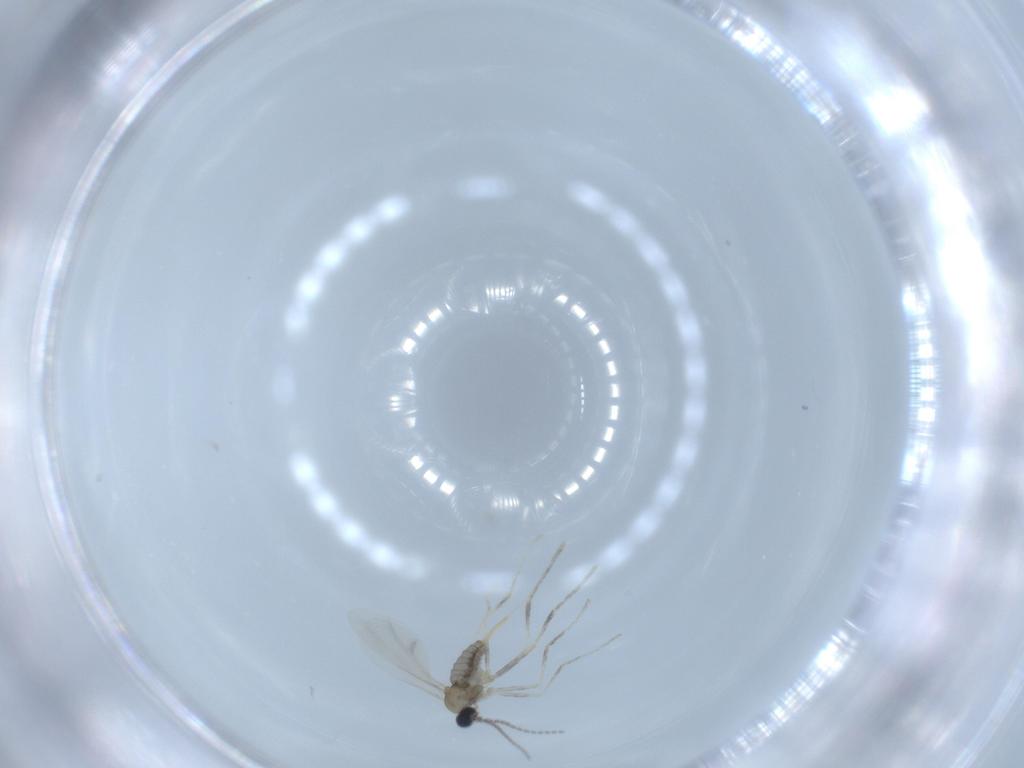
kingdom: Animalia
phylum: Arthropoda
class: Insecta
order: Diptera
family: Cecidomyiidae
